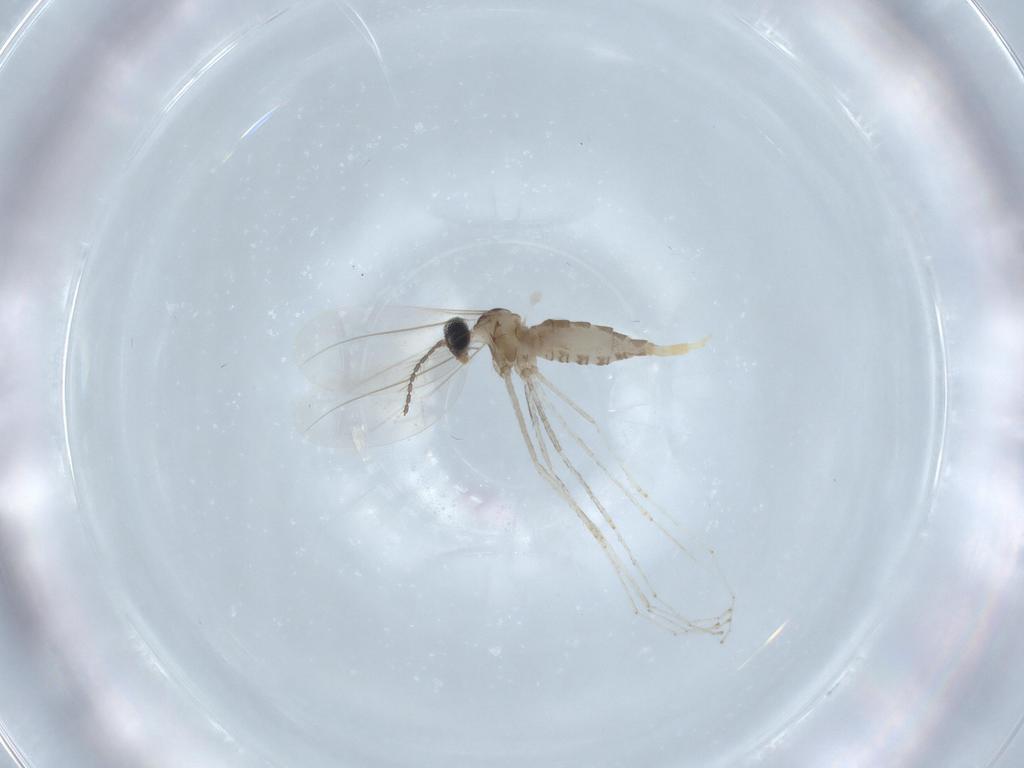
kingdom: Animalia
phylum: Arthropoda
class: Insecta
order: Diptera
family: Cecidomyiidae
